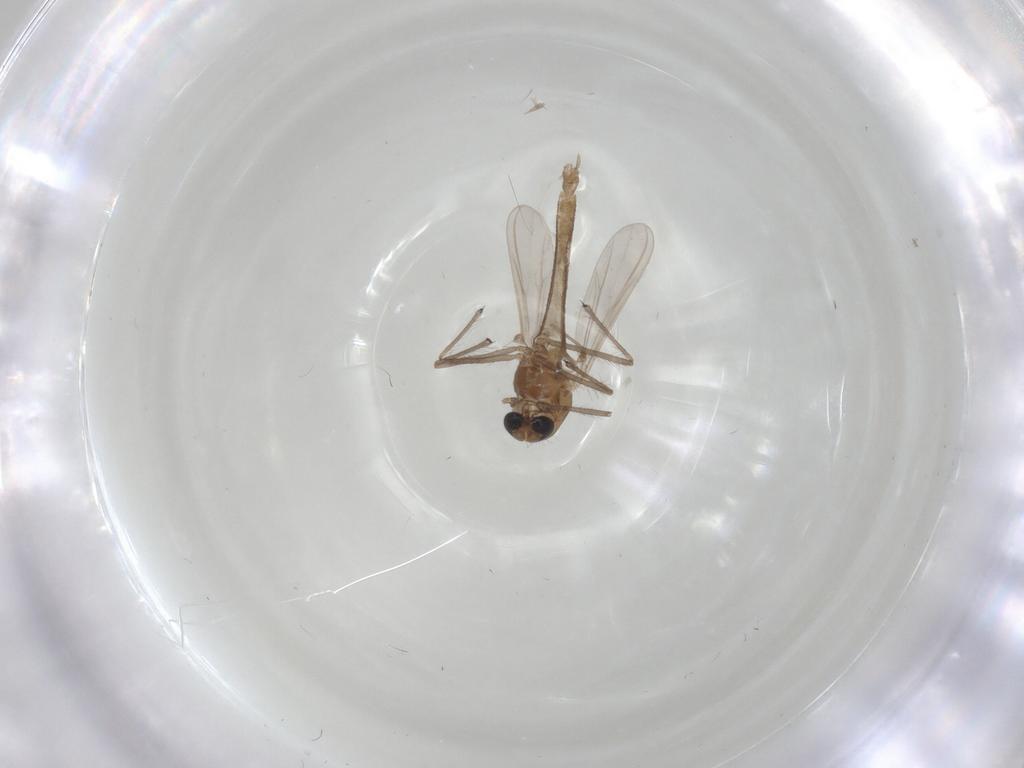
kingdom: Animalia
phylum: Arthropoda
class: Insecta
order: Diptera
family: Chironomidae
